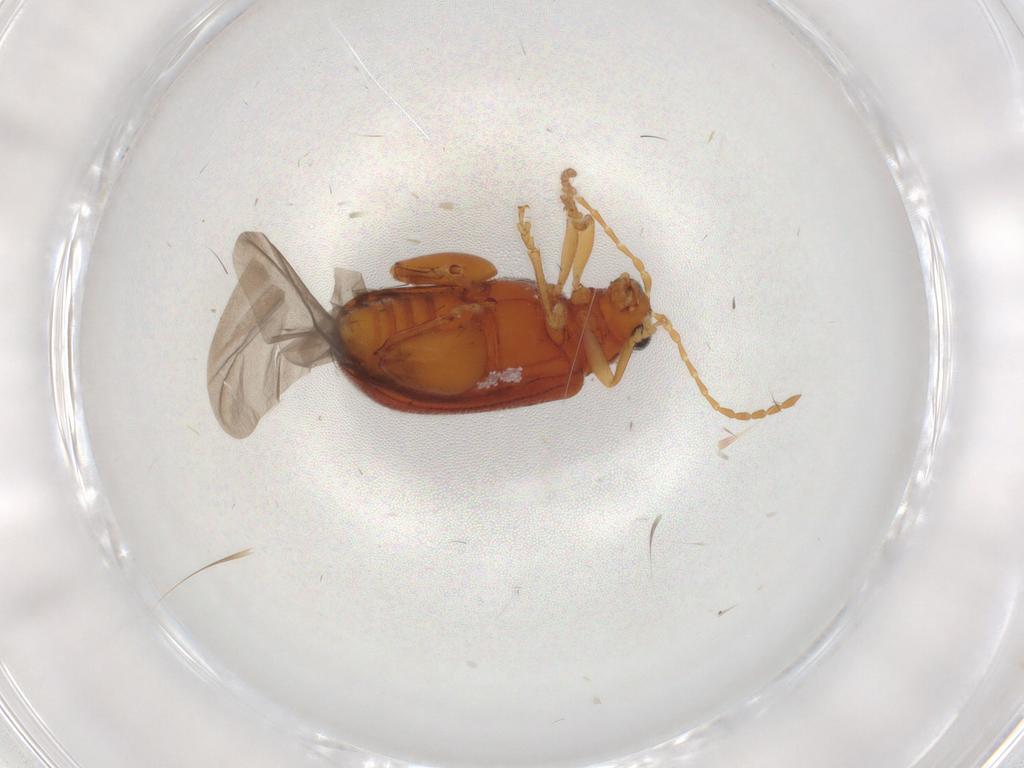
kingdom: Animalia
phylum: Arthropoda
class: Insecta
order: Coleoptera
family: Chrysomelidae
